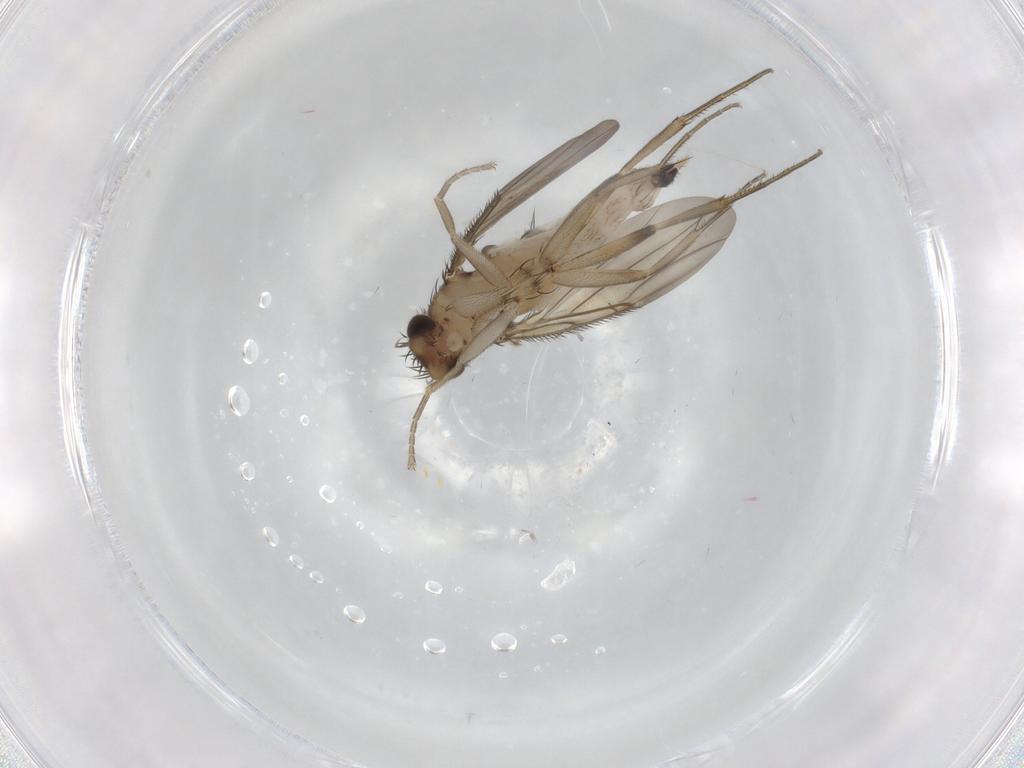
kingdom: Animalia
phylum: Arthropoda
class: Insecta
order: Diptera
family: Phoridae
